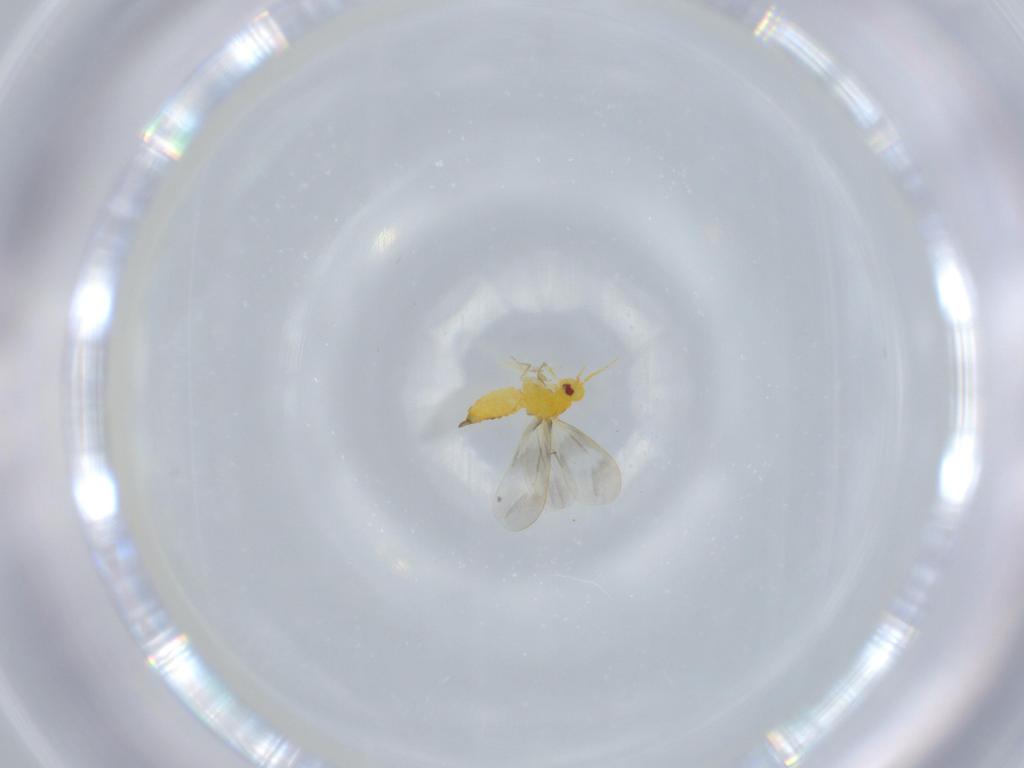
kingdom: Animalia
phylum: Arthropoda
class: Insecta
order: Hemiptera
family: Aleyrodidae
